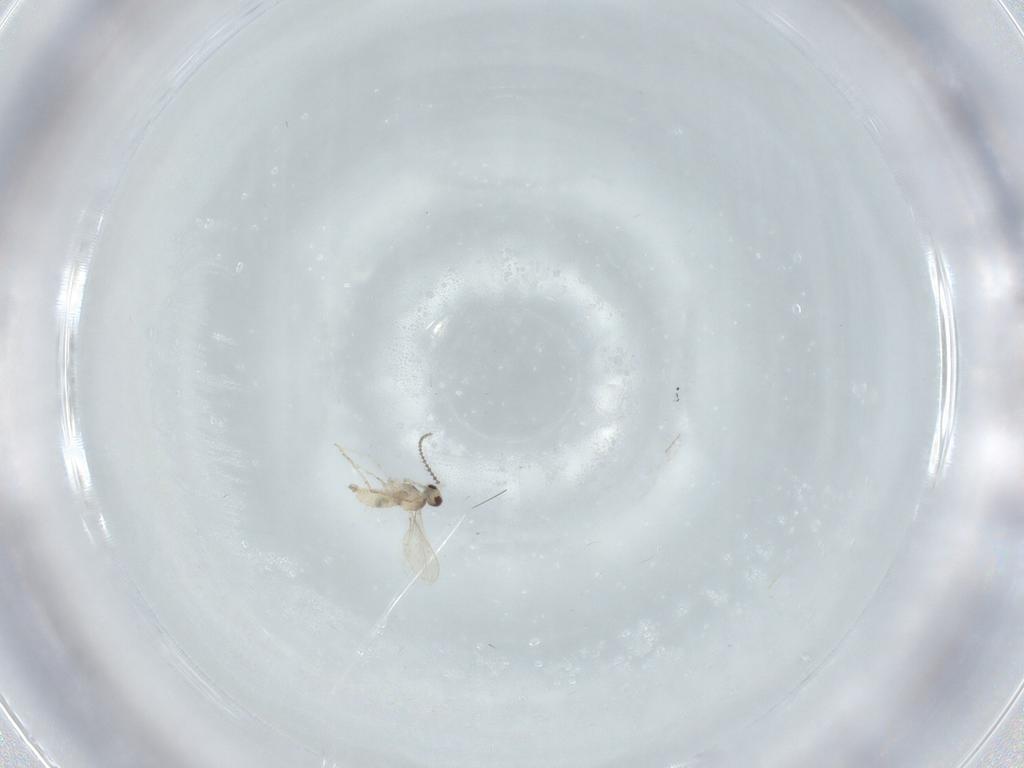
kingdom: Animalia
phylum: Arthropoda
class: Insecta
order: Diptera
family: Cecidomyiidae
